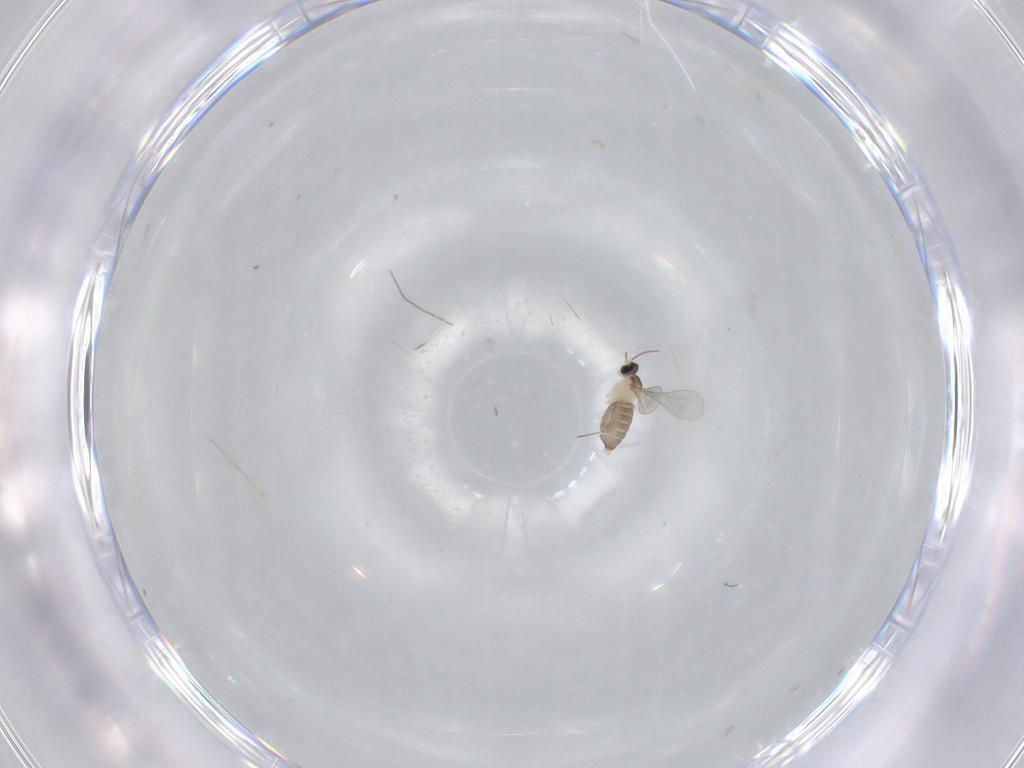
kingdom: Animalia
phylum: Arthropoda
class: Insecta
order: Diptera
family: Cecidomyiidae
